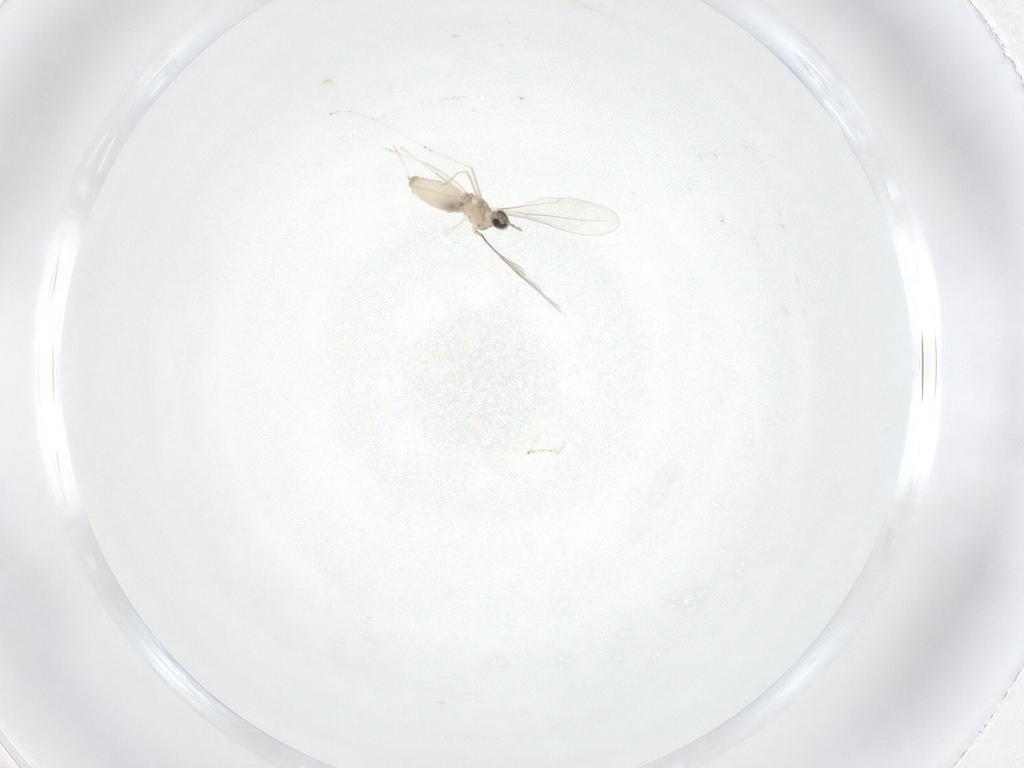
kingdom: Animalia
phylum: Arthropoda
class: Insecta
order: Diptera
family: Cecidomyiidae
